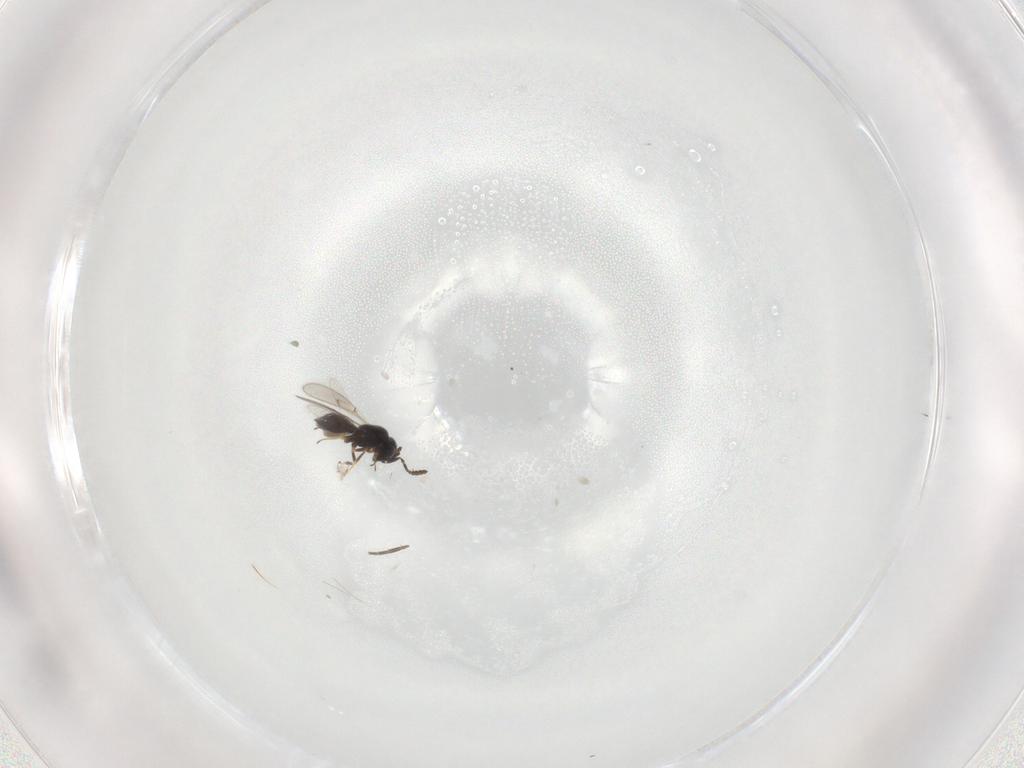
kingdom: Animalia
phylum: Arthropoda
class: Insecta
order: Hymenoptera
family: Scelionidae
